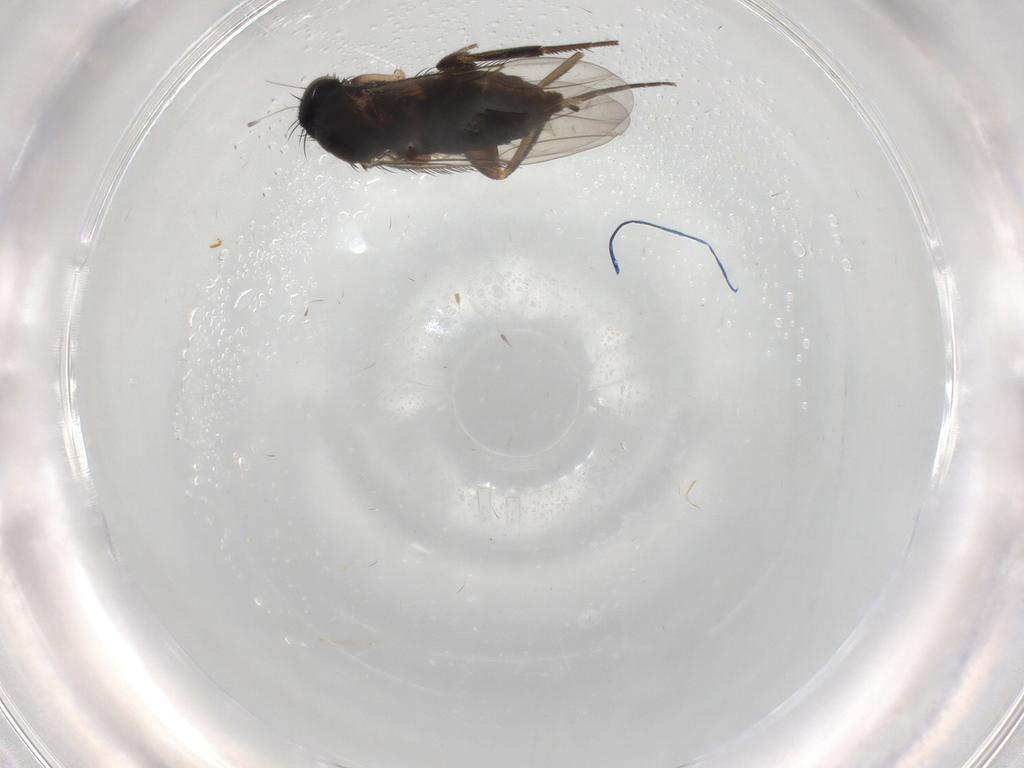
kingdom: Animalia
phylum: Arthropoda
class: Insecta
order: Diptera
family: Phoridae
